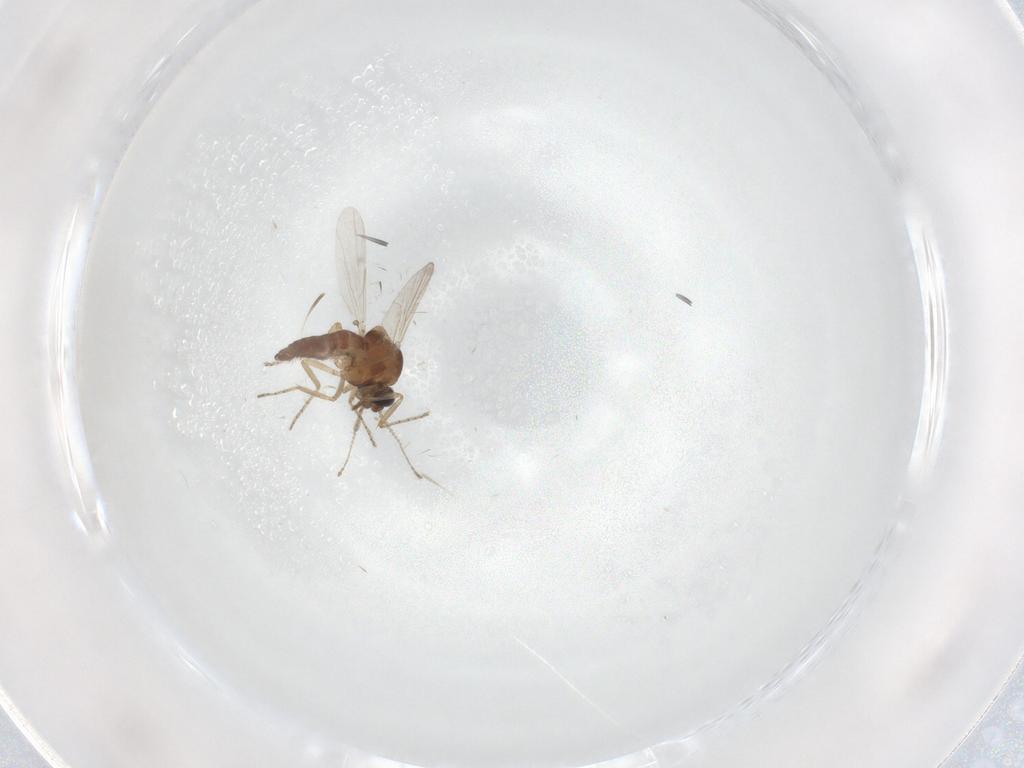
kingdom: Animalia
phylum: Arthropoda
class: Insecta
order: Diptera
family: Ceratopogonidae
